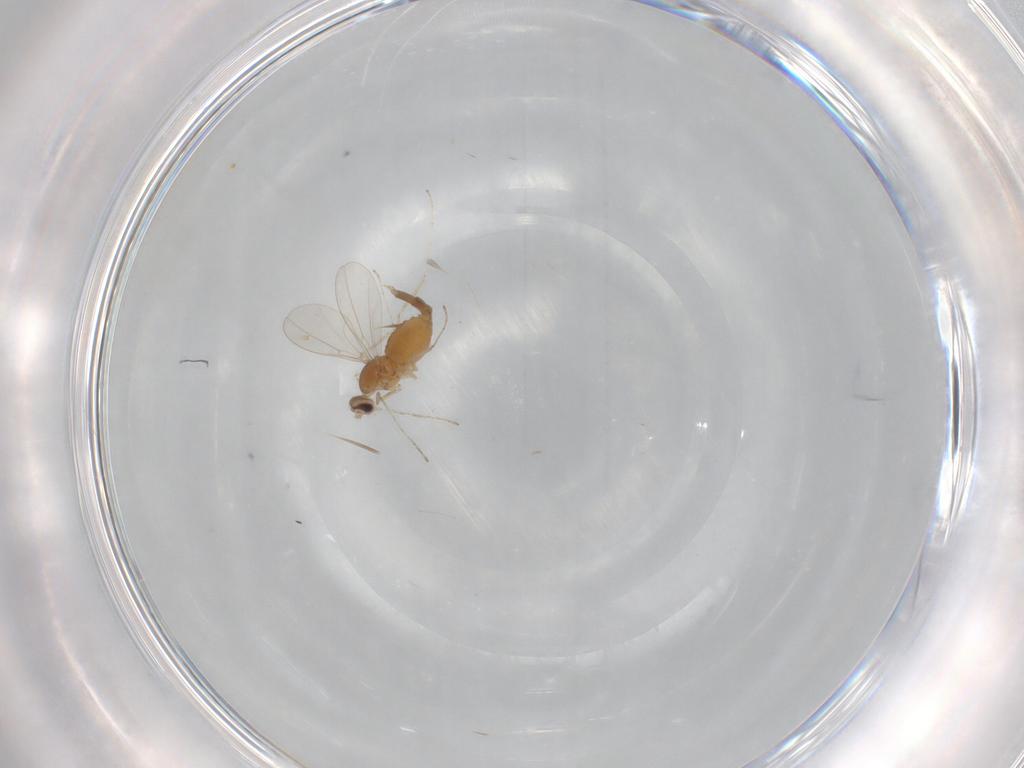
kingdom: Animalia
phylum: Arthropoda
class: Insecta
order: Diptera
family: Cecidomyiidae
